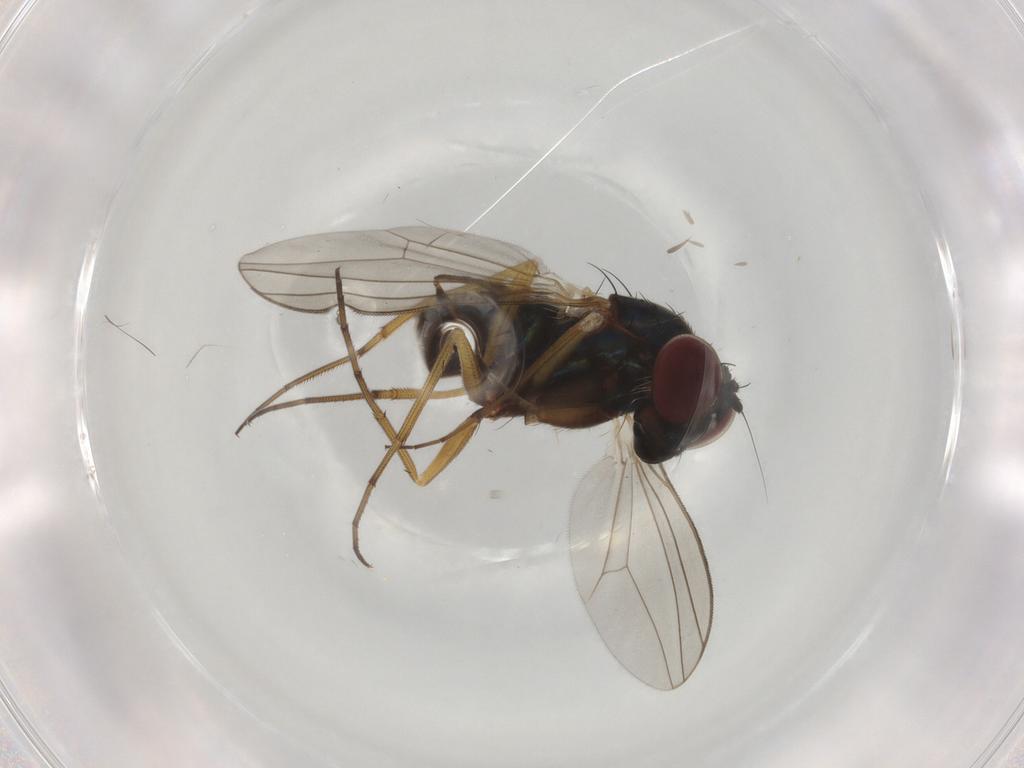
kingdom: Animalia
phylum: Arthropoda
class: Insecta
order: Diptera
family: Dolichopodidae
